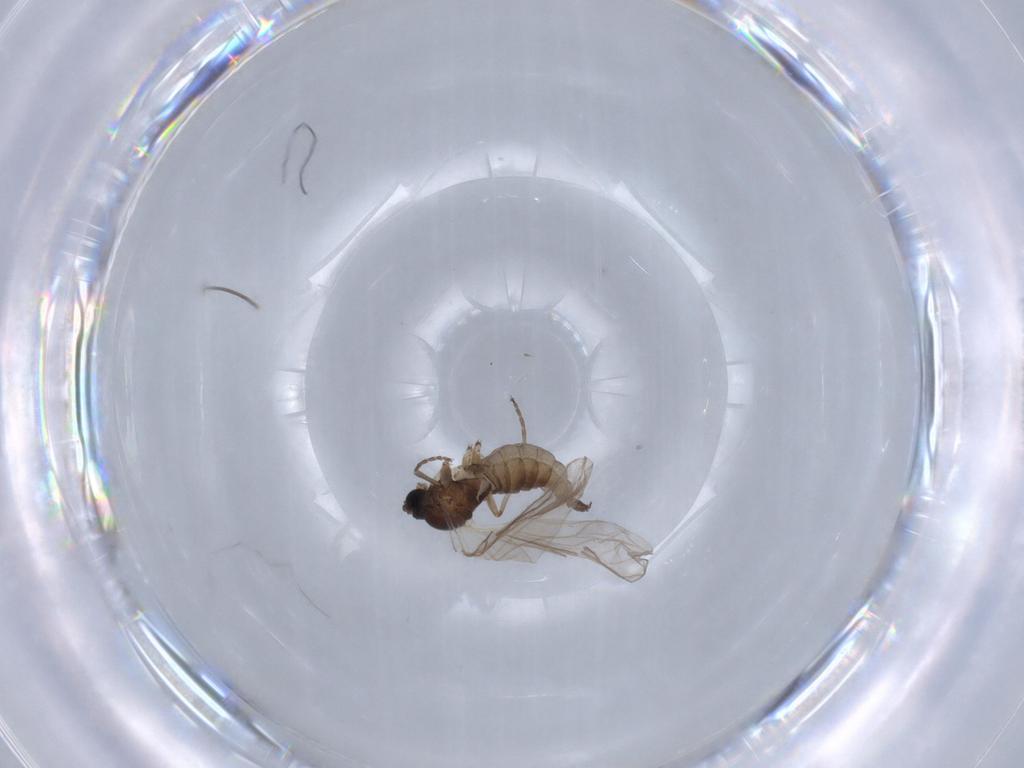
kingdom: Animalia
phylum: Arthropoda
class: Insecta
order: Diptera
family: Sciaridae
